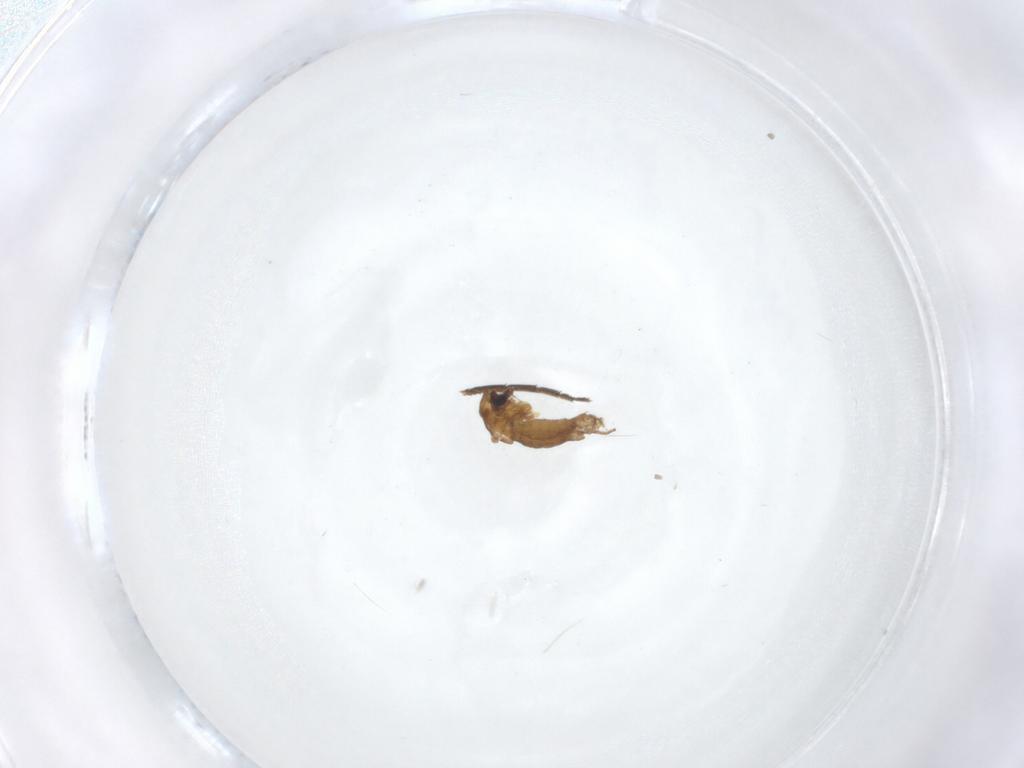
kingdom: Animalia
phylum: Arthropoda
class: Insecta
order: Diptera
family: Chironomidae
